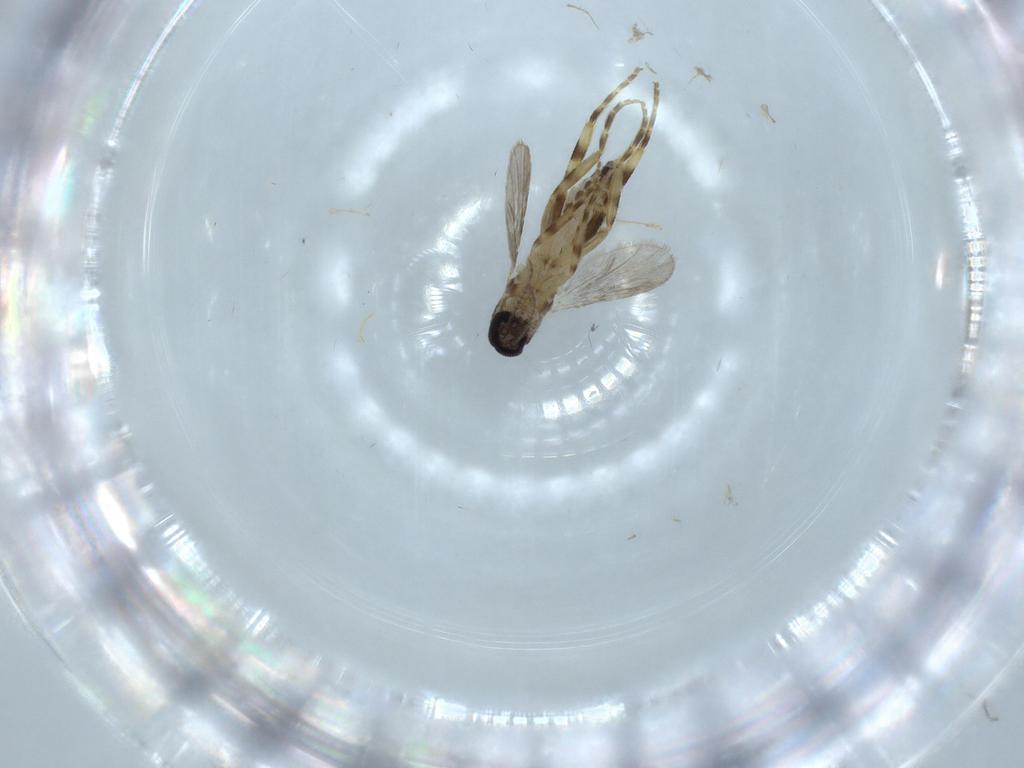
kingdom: Animalia
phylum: Arthropoda
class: Insecta
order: Diptera
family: Ceratopogonidae
